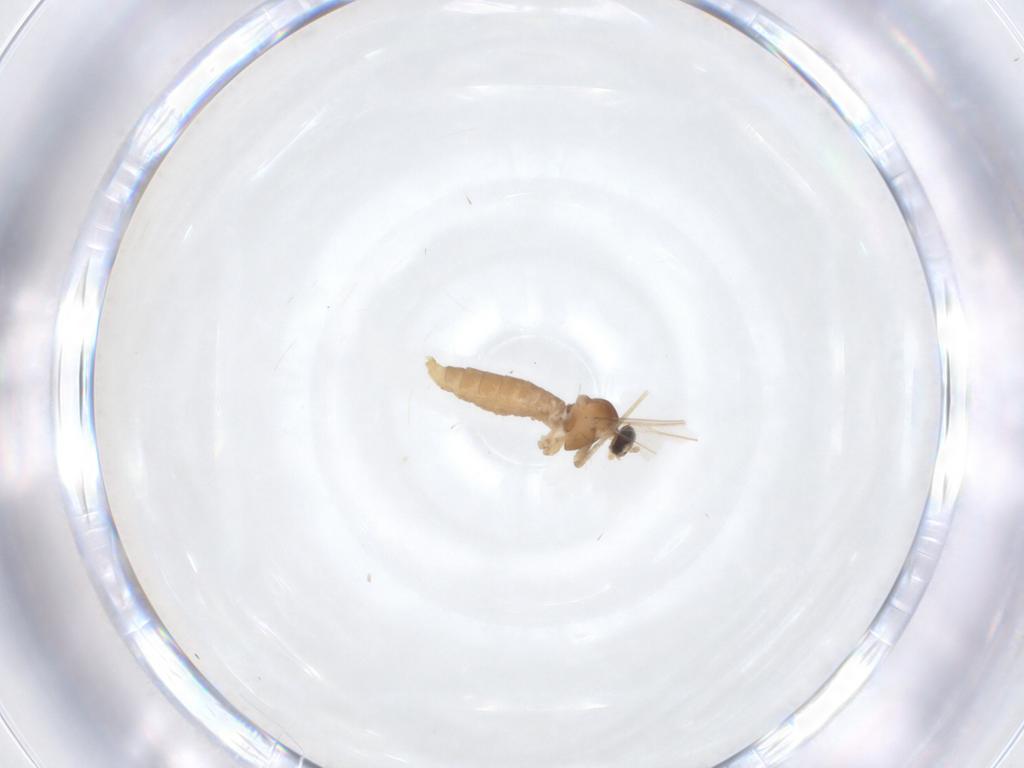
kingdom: Animalia
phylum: Arthropoda
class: Insecta
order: Diptera
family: Cecidomyiidae
